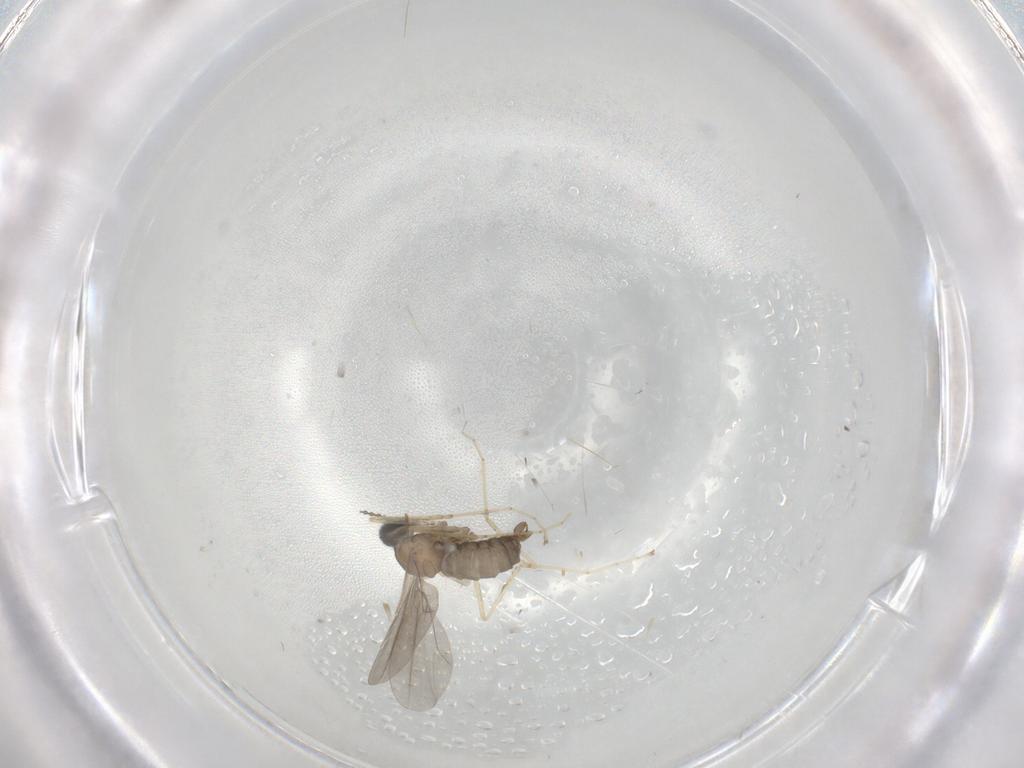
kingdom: Animalia
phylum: Arthropoda
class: Insecta
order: Diptera
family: Cecidomyiidae
